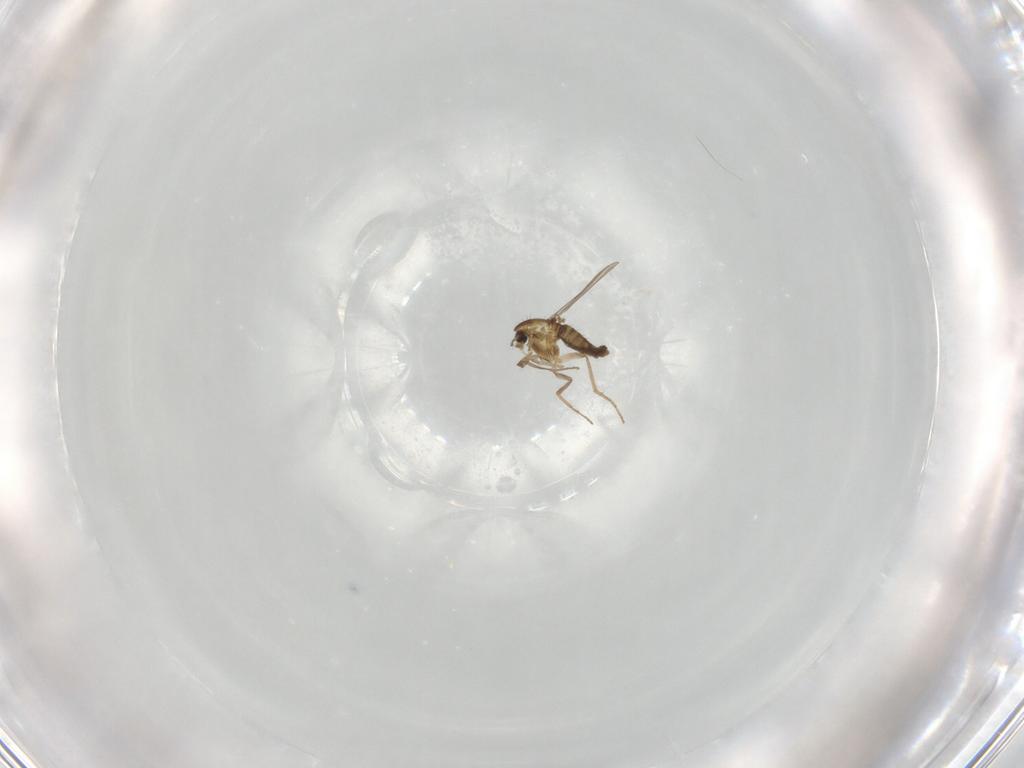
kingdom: Animalia
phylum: Arthropoda
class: Insecta
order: Diptera
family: Chironomidae
